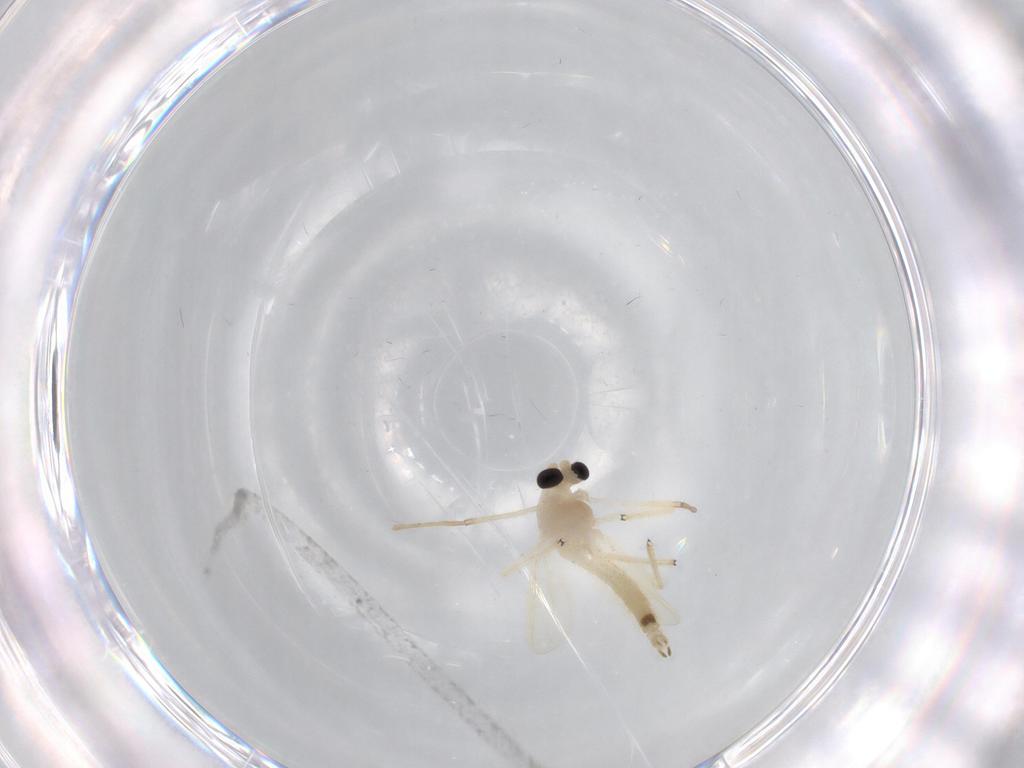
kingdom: Animalia
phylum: Arthropoda
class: Insecta
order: Diptera
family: Chironomidae
